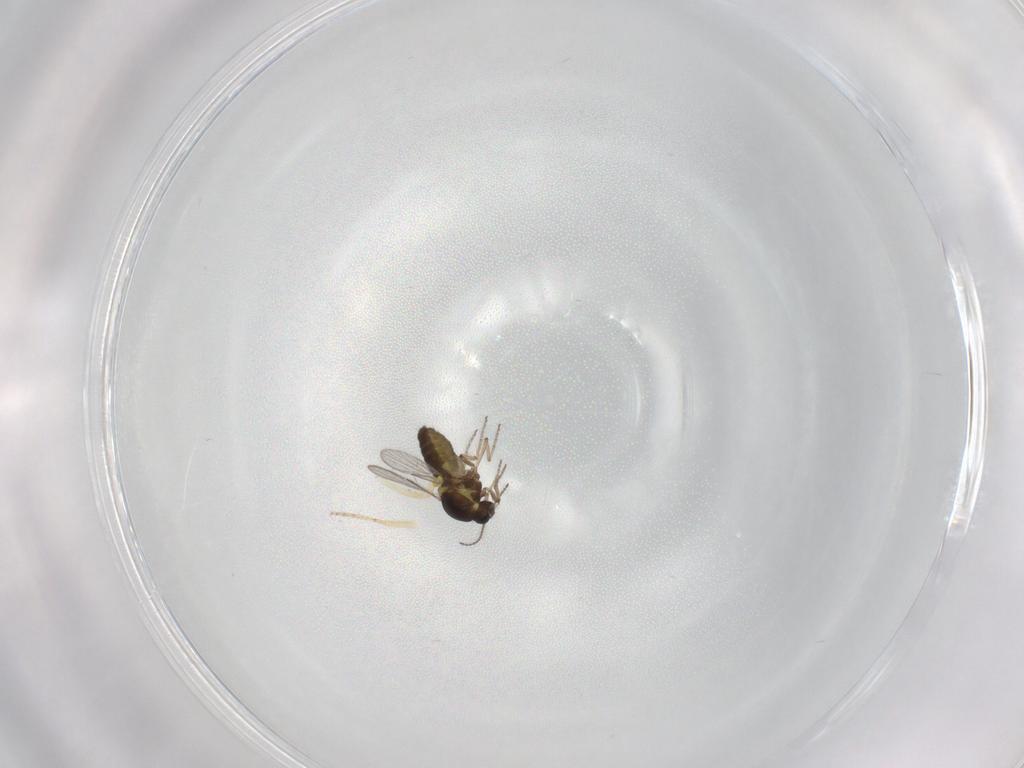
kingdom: Animalia
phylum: Arthropoda
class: Insecta
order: Diptera
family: Ceratopogonidae
